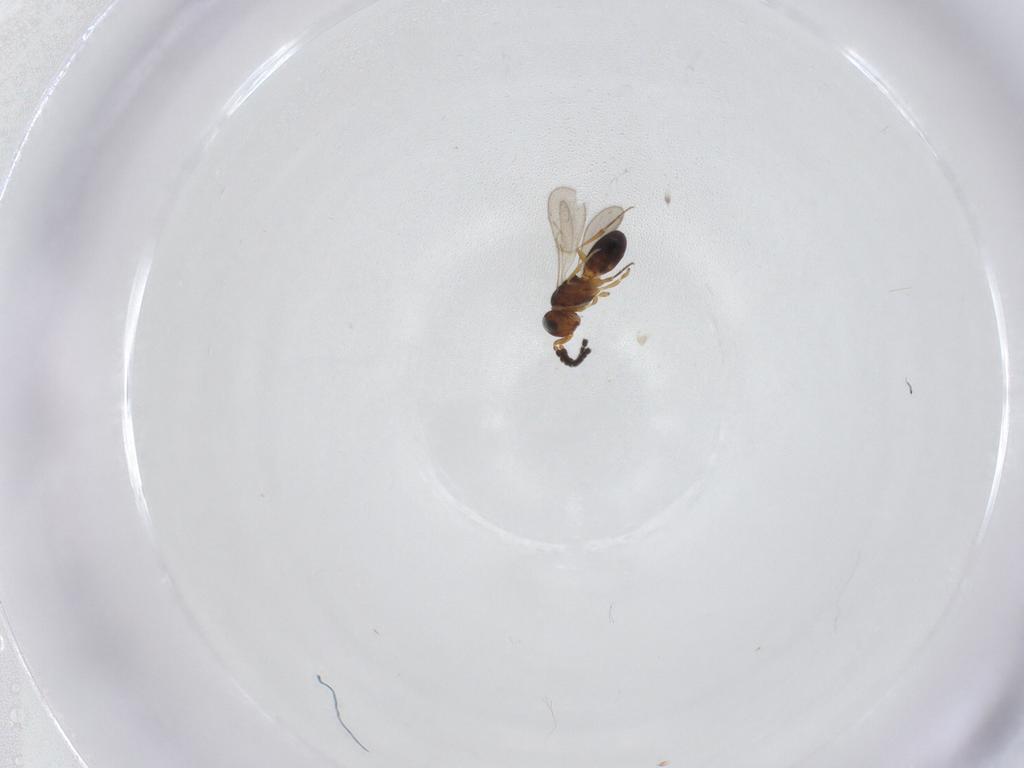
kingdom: Animalia
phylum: Arthropoda
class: Insecta
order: Hymenoptera
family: Scelionidae
